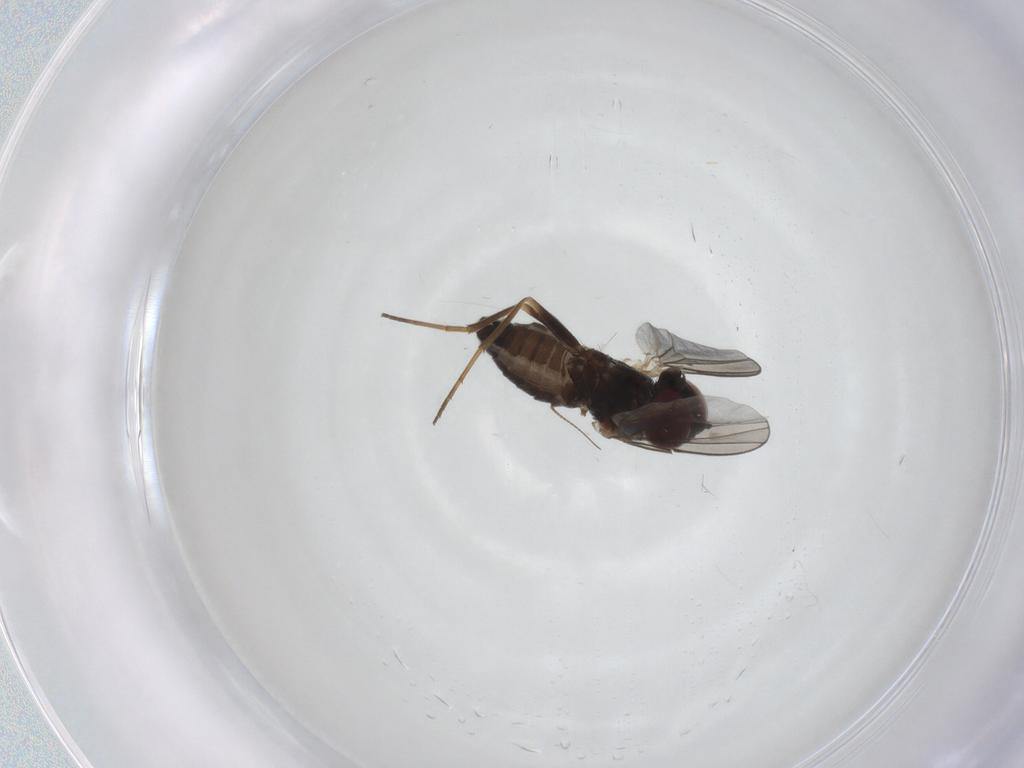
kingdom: Animalia
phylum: Arthropoda
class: Insecta
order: Diptera
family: Dolichopodidae
